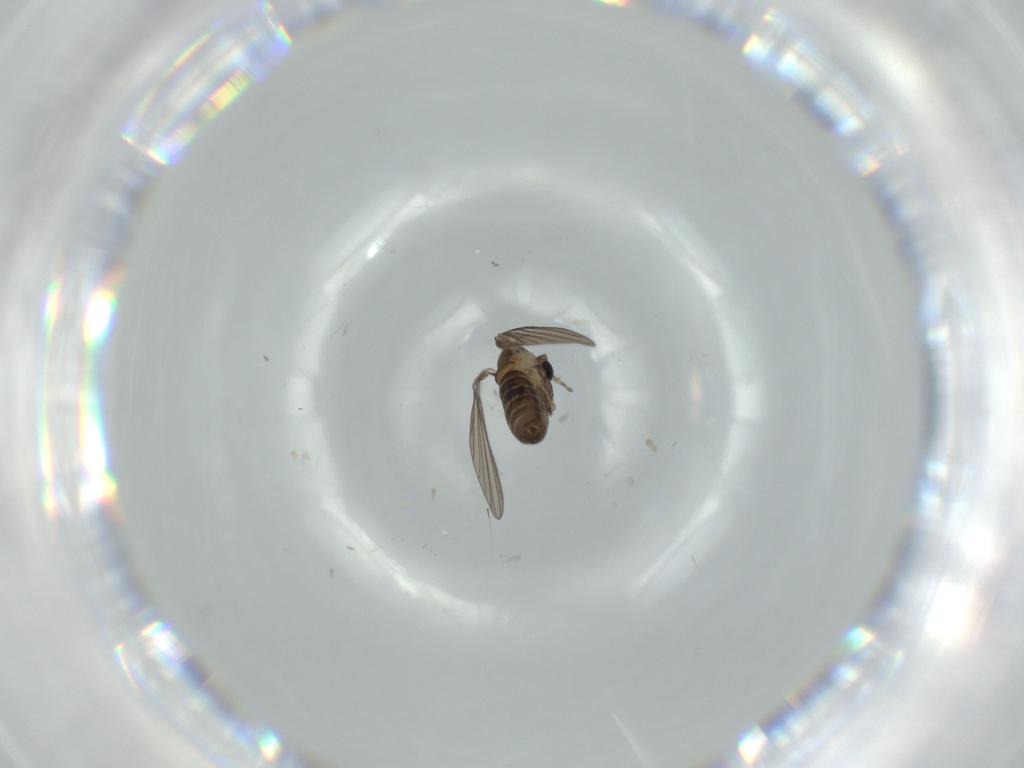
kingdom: Animalia
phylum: Arthropoda
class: Insecta
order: Diptera
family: Psychodidae
